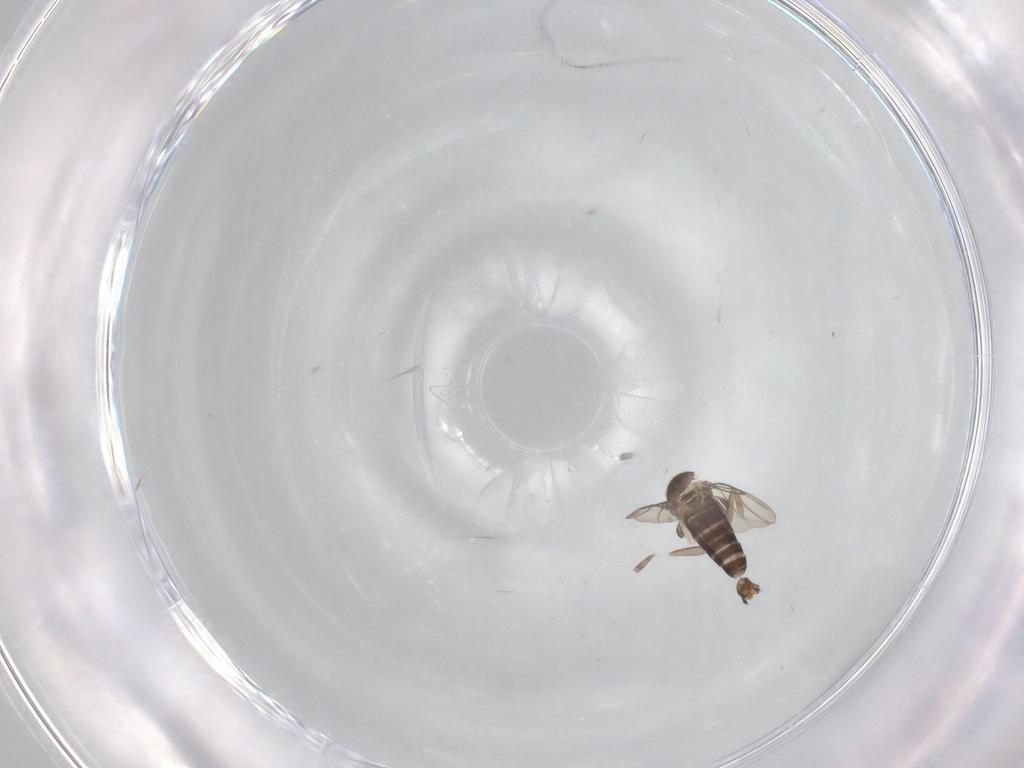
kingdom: Animalia
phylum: Arthropoda
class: Insecta
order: Diptera
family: Phoridae
